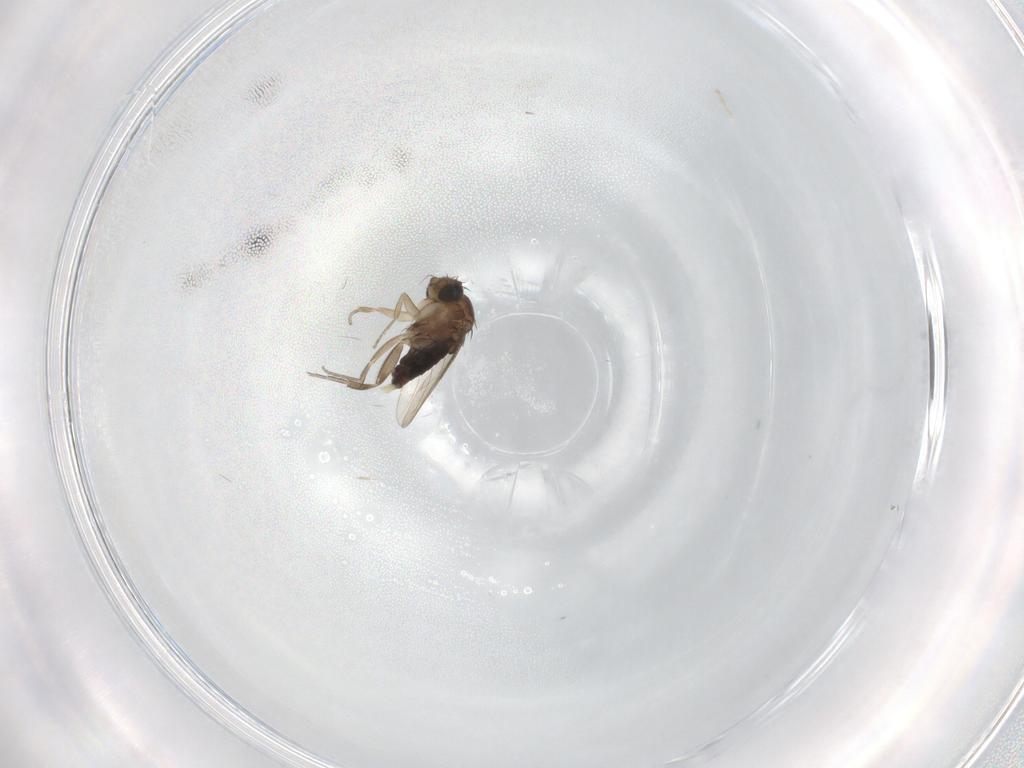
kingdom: Animalia
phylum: Arthropoda
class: Insecta
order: Diptera
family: Phoridae
